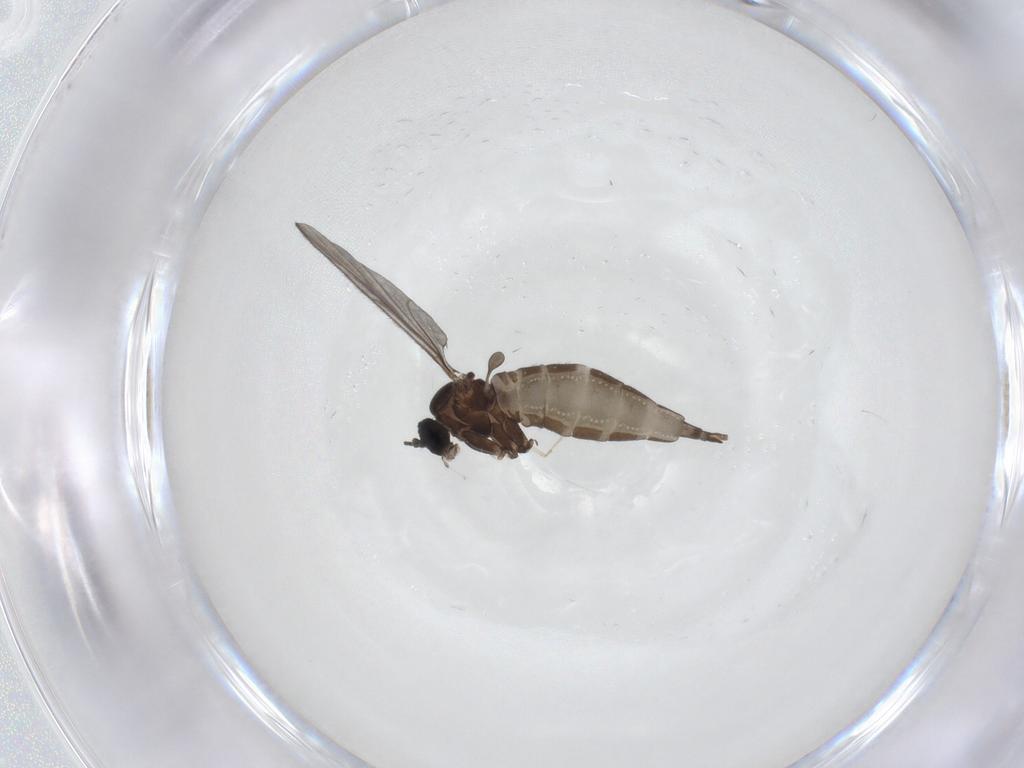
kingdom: Animalia
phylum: Arthropoda
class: Insecta
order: Diptera
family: Sciaridae
